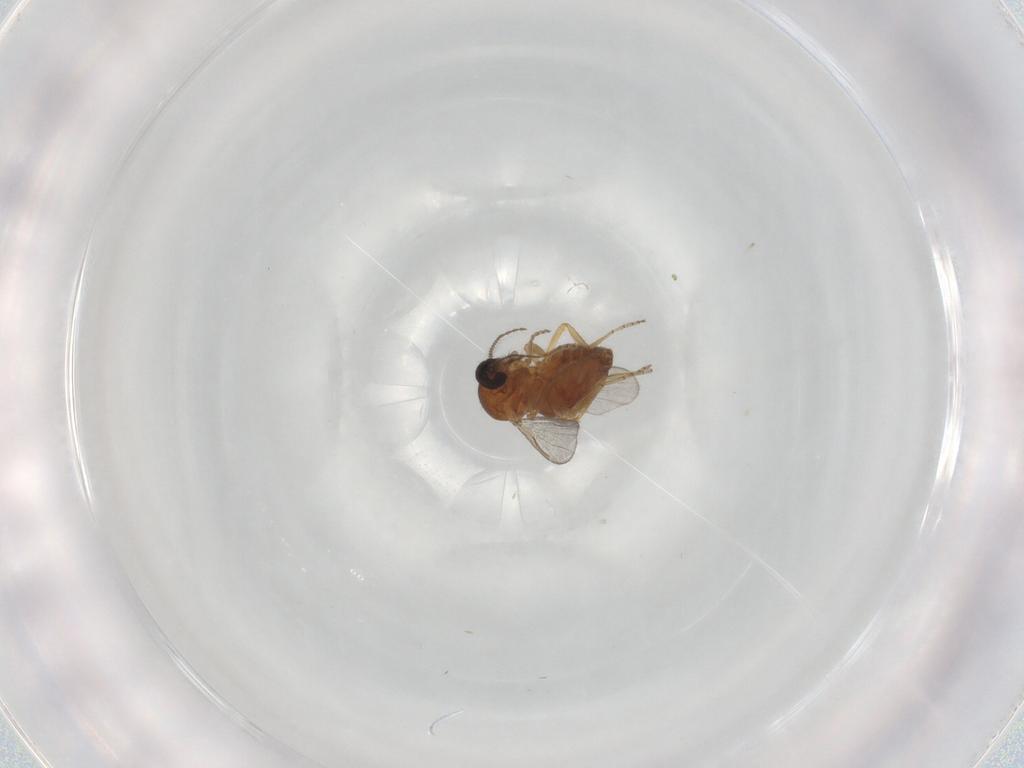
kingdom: Animalia
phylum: Arthropoda
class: Insecta
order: Diptera
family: Ceratopogonidae
